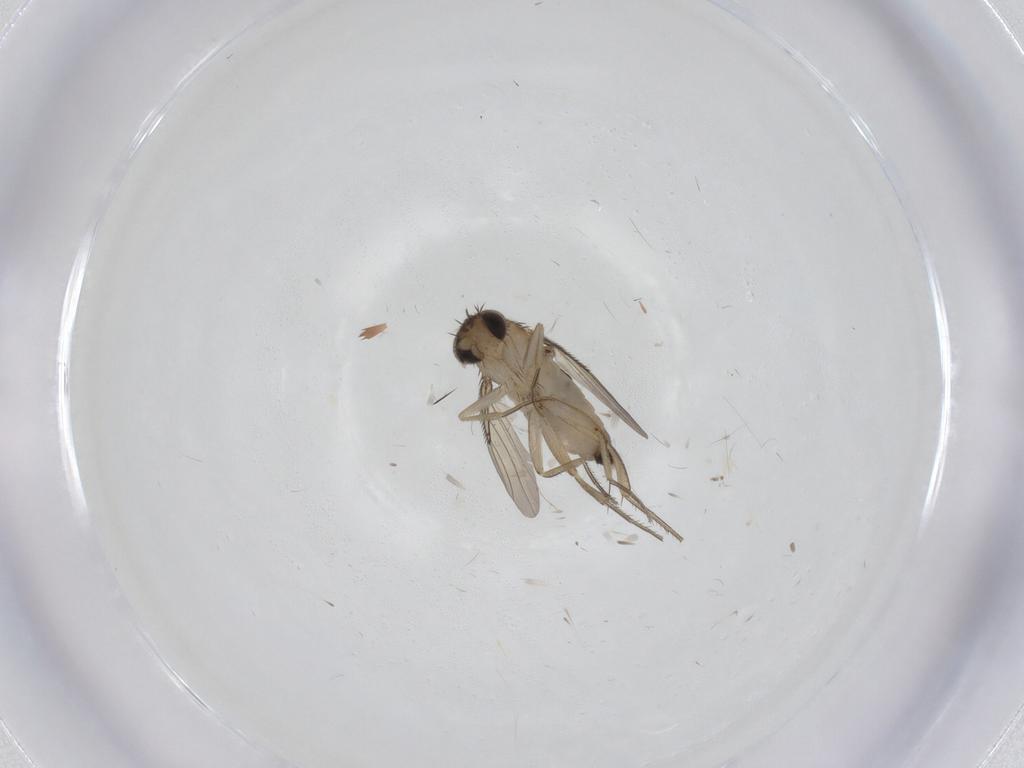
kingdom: Animalia
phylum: Arthropoda
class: Insecta
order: Diptera
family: Phoridae
